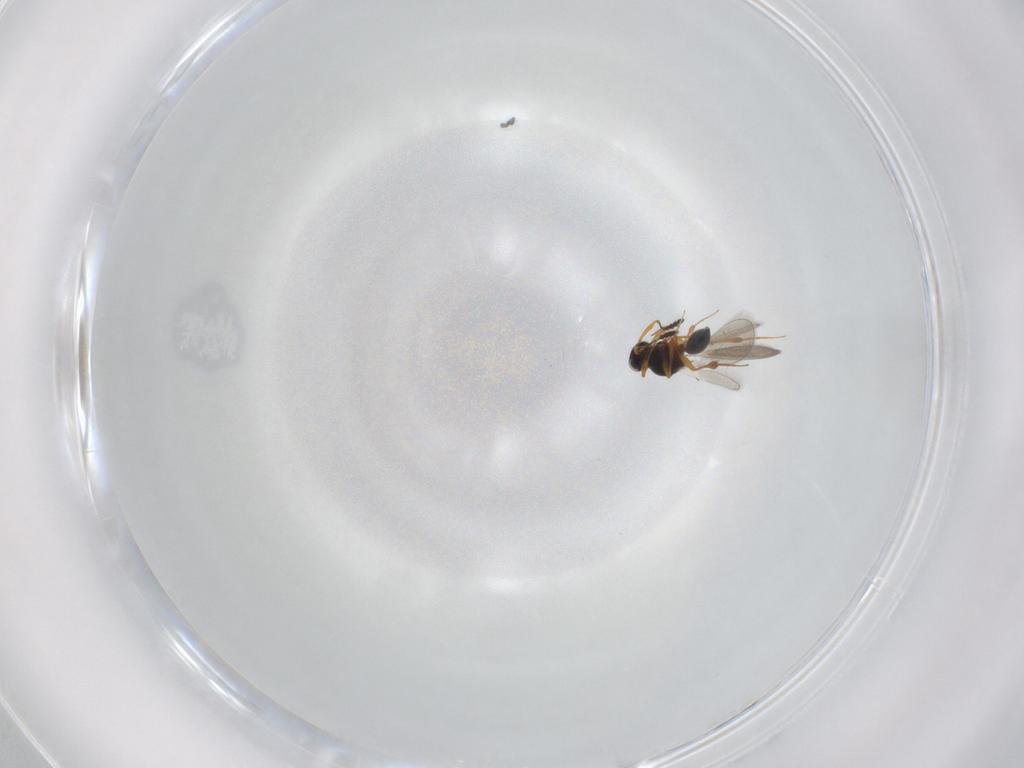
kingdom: Animalia
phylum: Arthropoda
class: Insecta
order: Hymenoptera
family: Platygastridae
